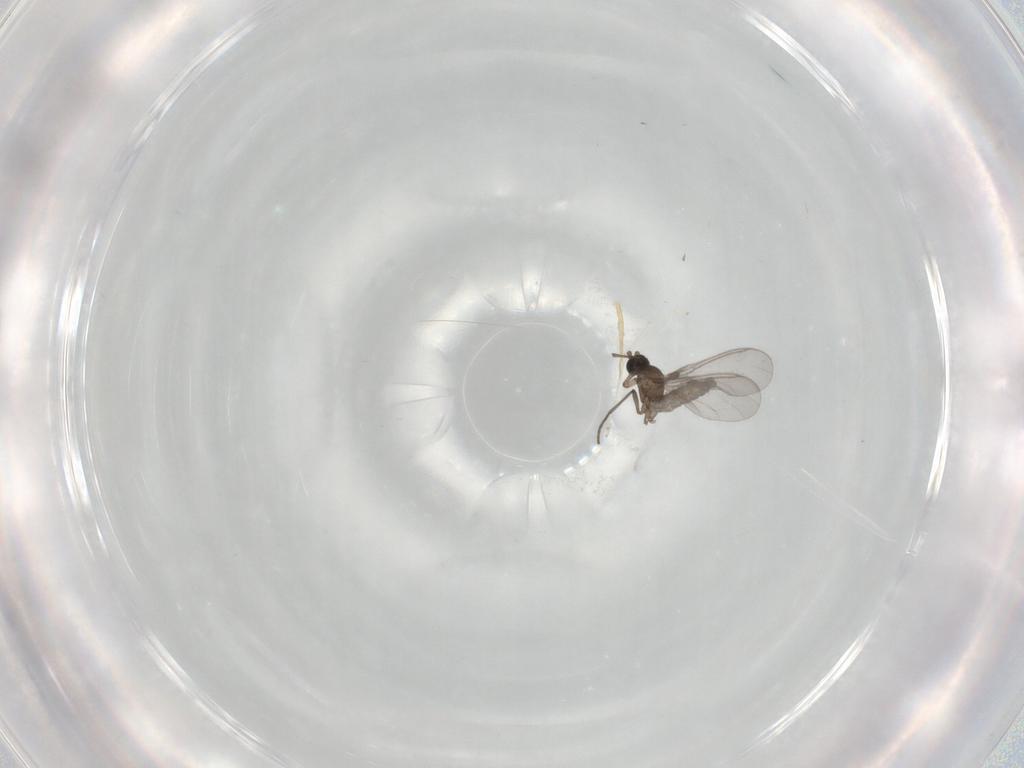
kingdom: Animalia
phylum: Arthropoda
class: Insecta
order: Diptera
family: Sciaridae
